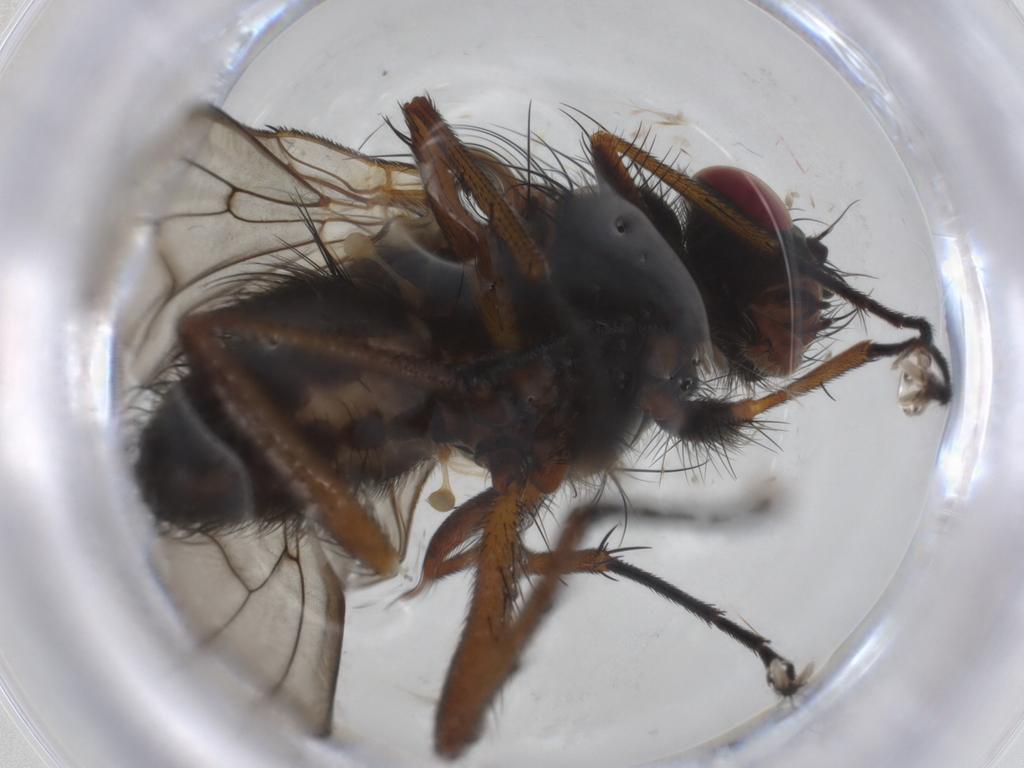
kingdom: Animalia
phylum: Arthropoda
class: Insecta
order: Diptera
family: Anthomyiidae
